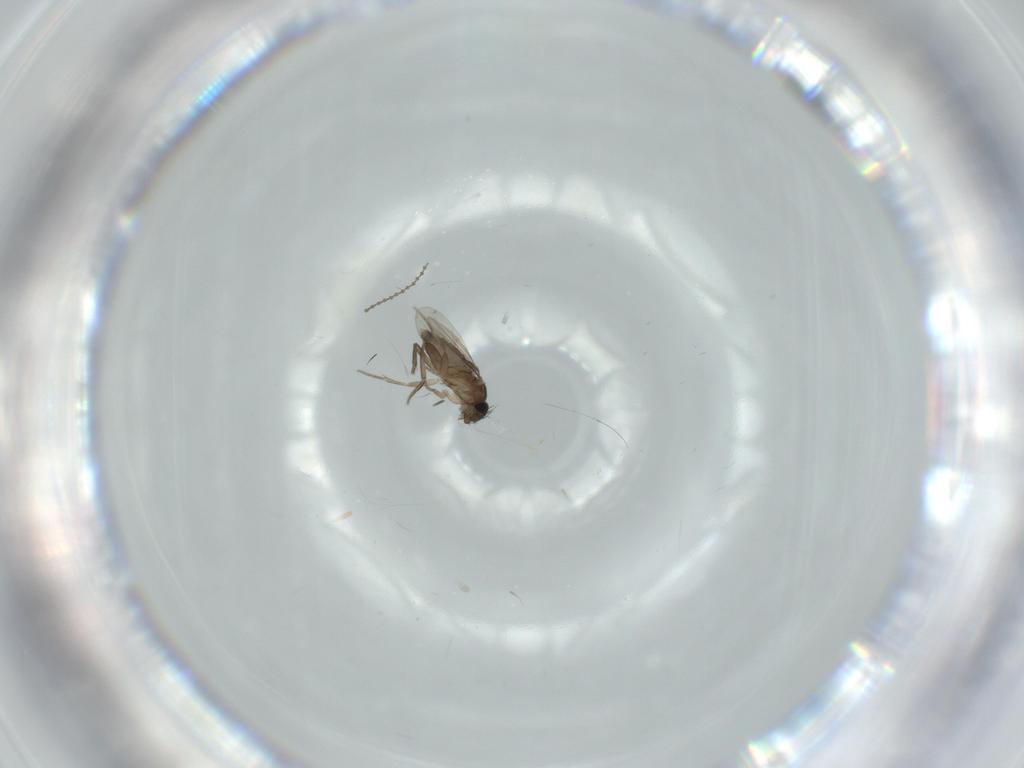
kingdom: Animalia
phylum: Arthropoda
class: Insecta
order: Diptera
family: Phoridae
